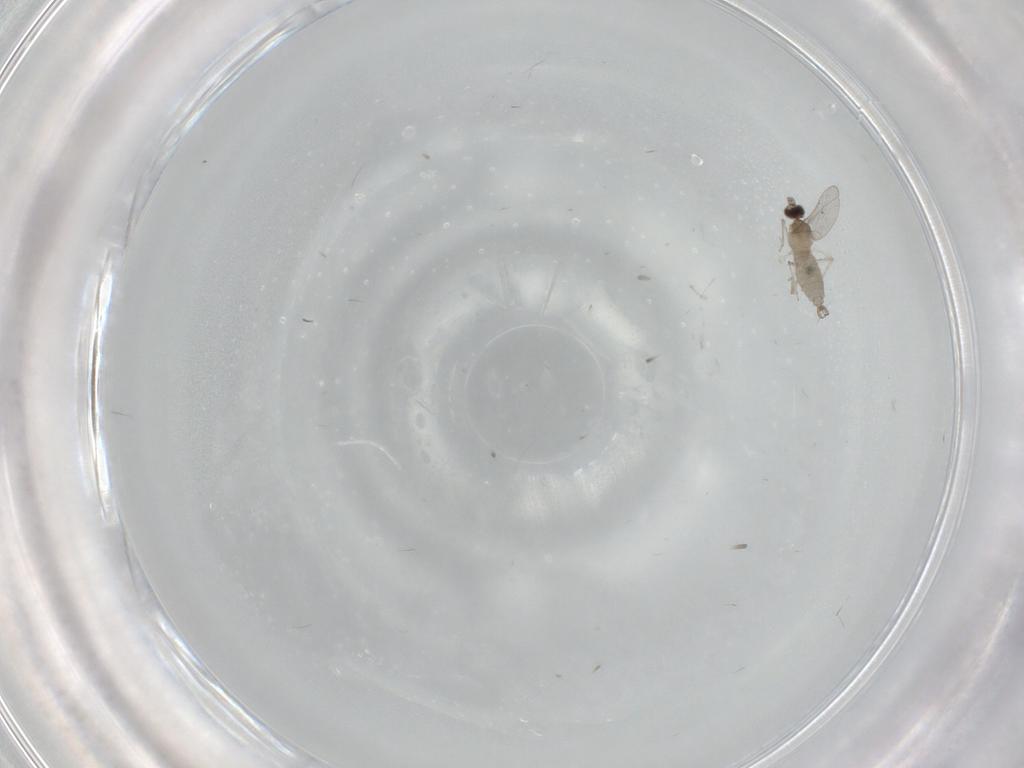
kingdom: Animalia
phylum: Arthropoda
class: Insecta
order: Diptera
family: Cecidomyiidae
